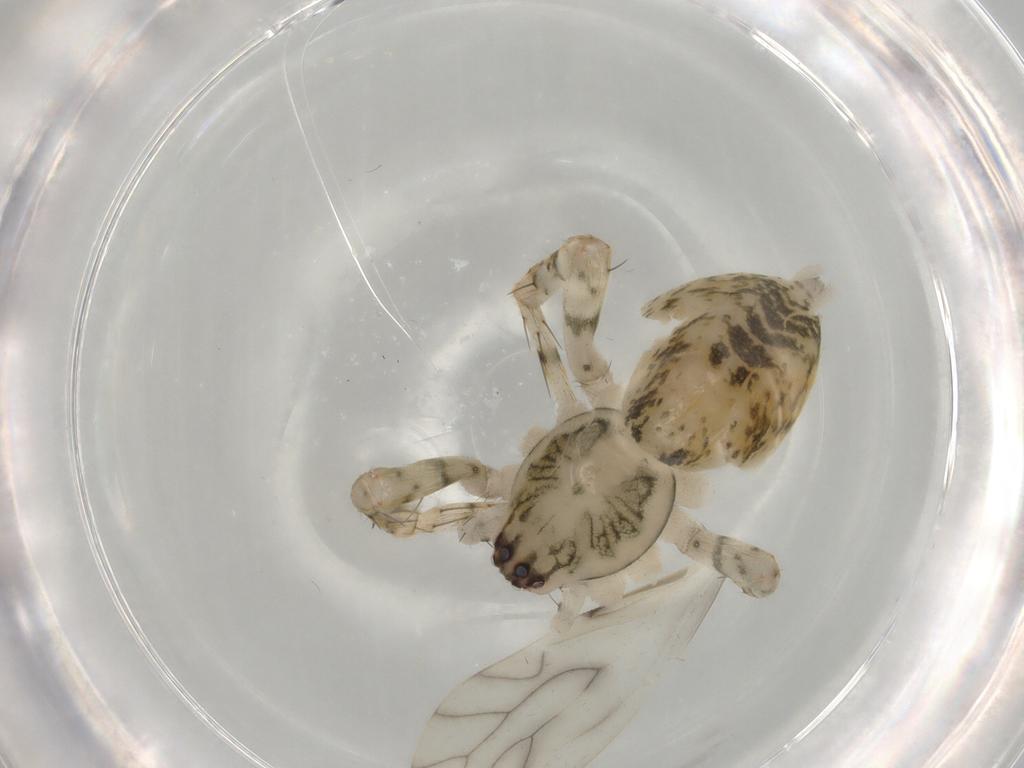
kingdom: Animalia
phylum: Arthropoda
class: Arachnida
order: Araneae
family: Anyphaenidae
